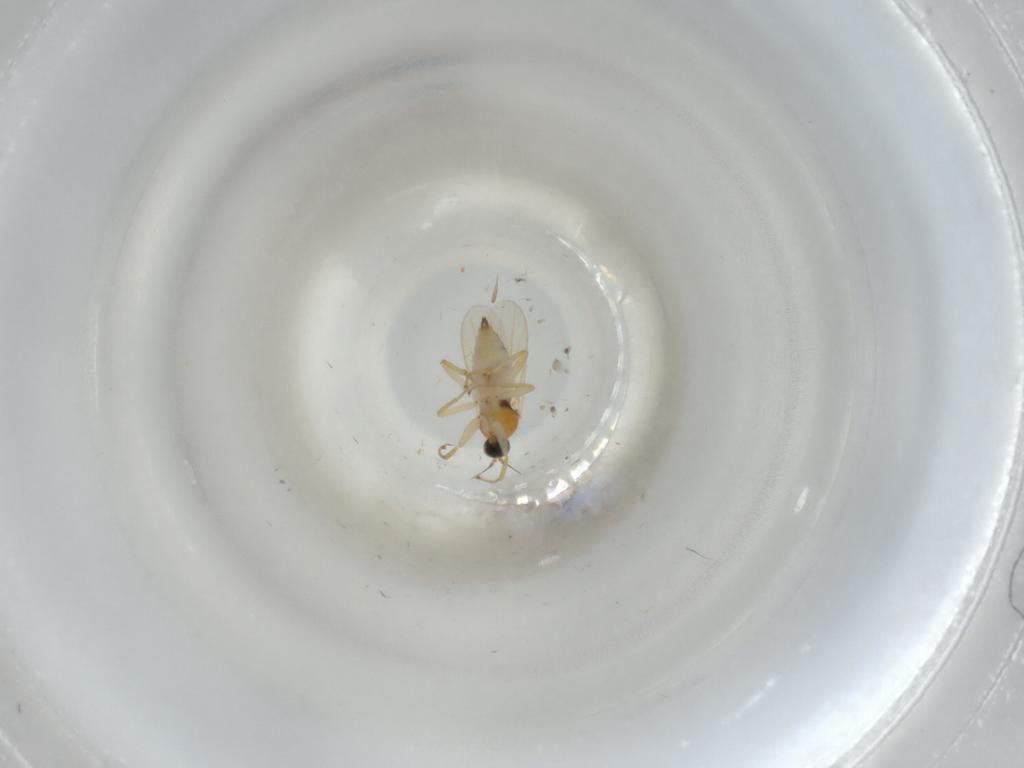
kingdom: Animalia
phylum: Arthropoda
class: Insecta
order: Diptera
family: Hybotidae
